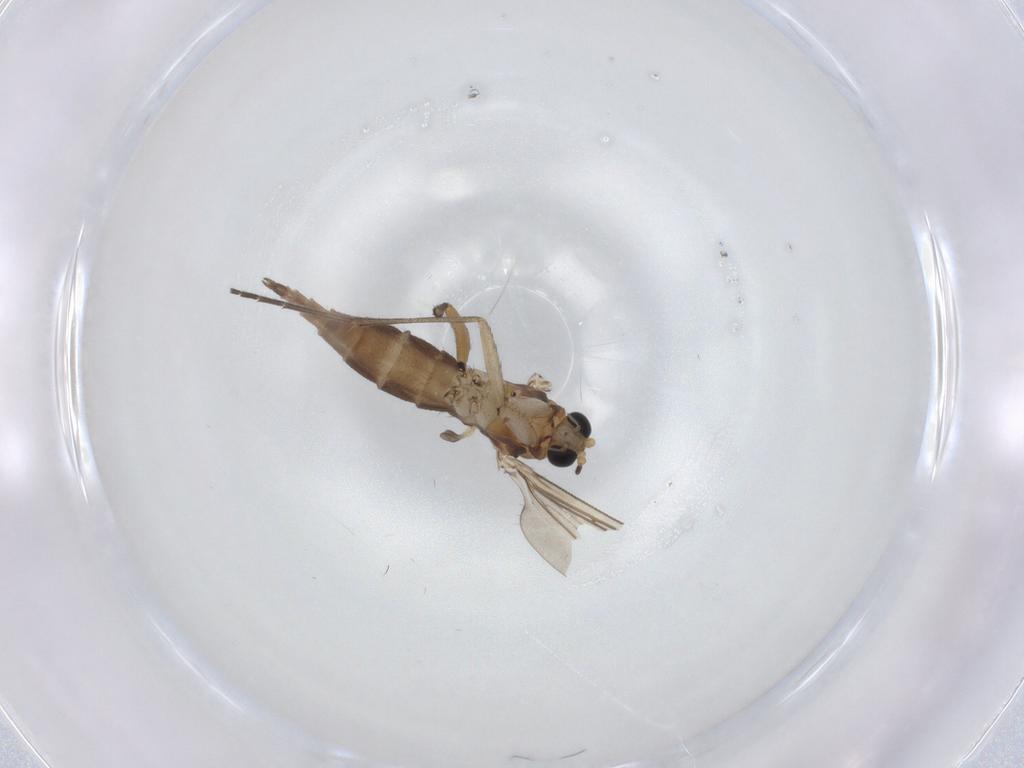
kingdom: Animalia
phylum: Arthropoda
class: Insecta
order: Diptera
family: Sciaridae
